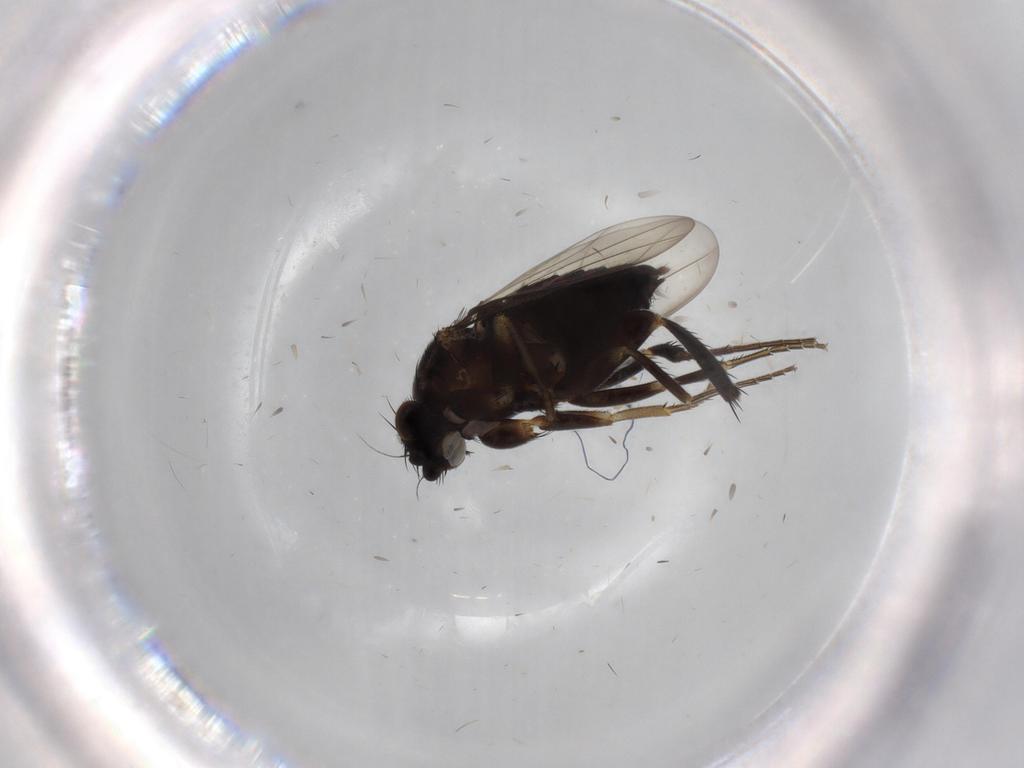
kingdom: Animalia
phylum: Arthropoda
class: Insecta
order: Diptera
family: Phoridae
